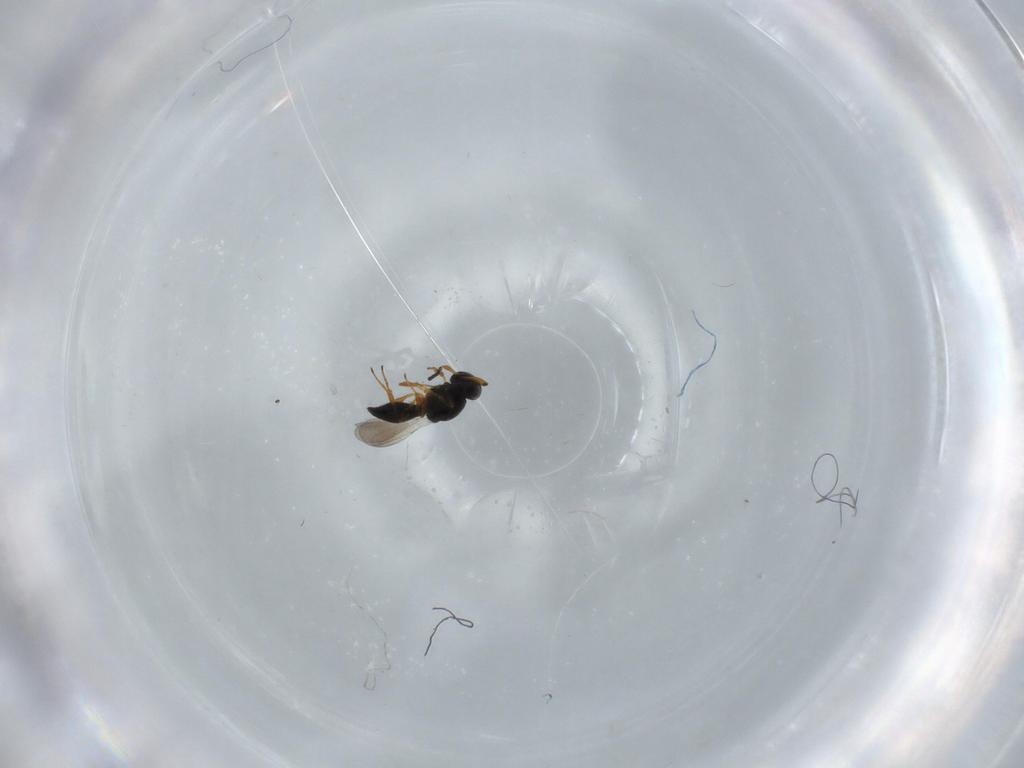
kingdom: Animalia
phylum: Arthropoda
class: Insecta
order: Hymenoptera
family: Platygastridae
